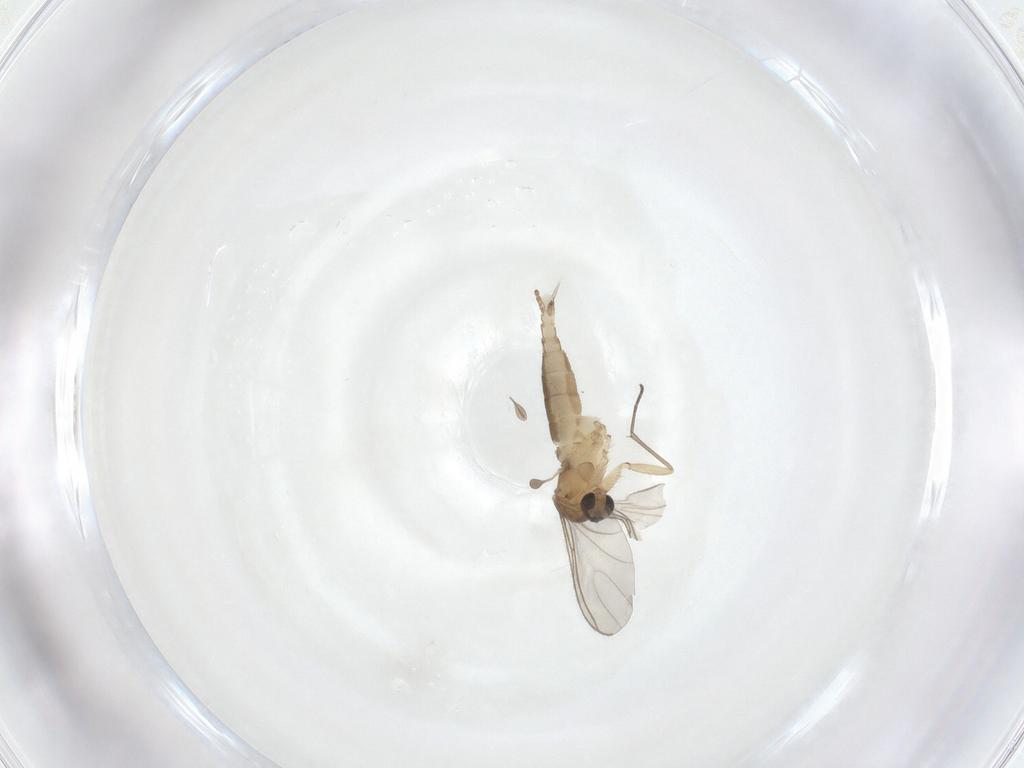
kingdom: Animalia
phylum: Arthropoda
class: Insecta
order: Diptera
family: Sciaridae
